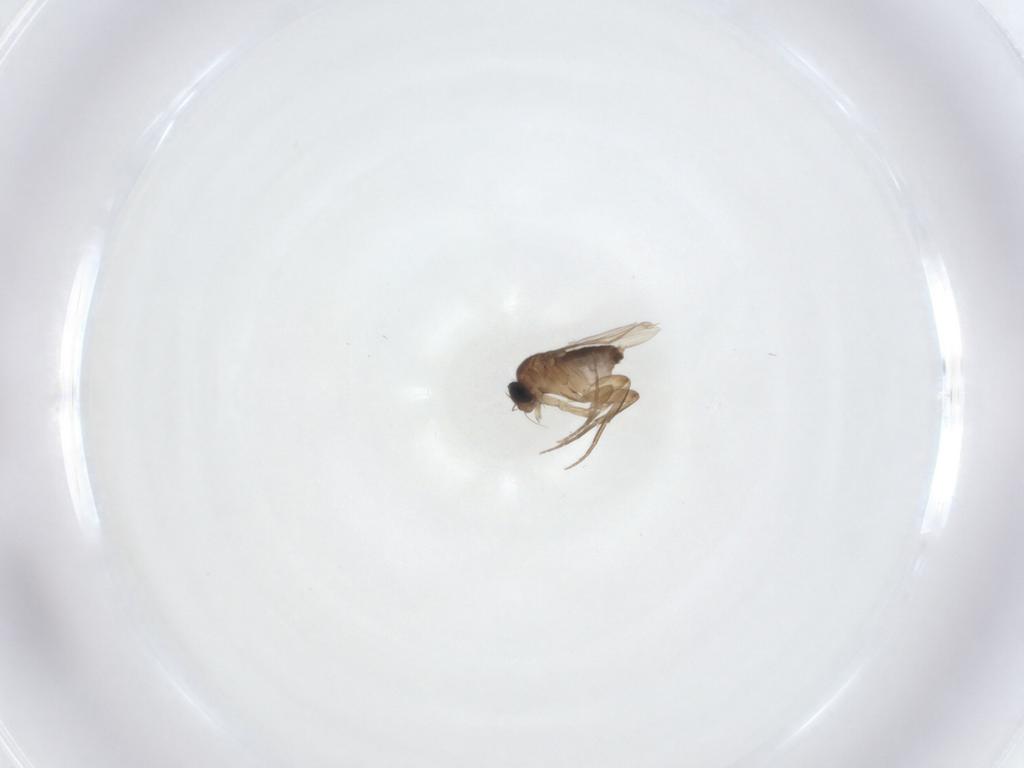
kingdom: Animalia
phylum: Arthropoda
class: Insecta
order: Diptera
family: Phoridae
